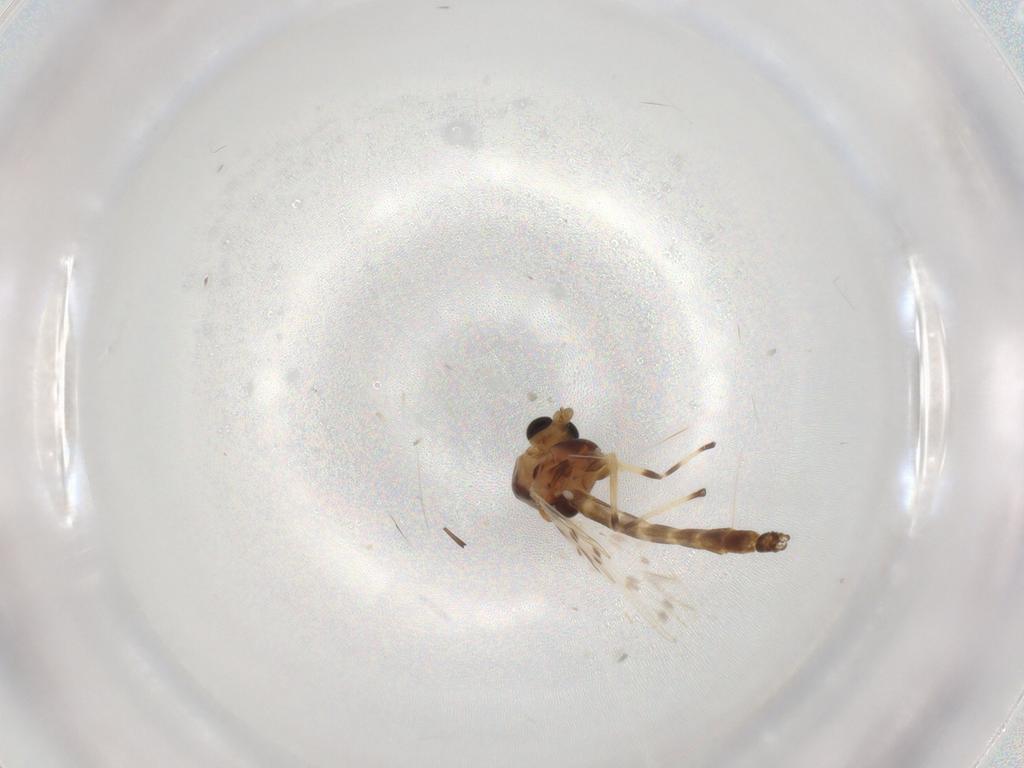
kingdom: Animalia
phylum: Arthropoda
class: Insecta
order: Diptera
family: Chironomidae
